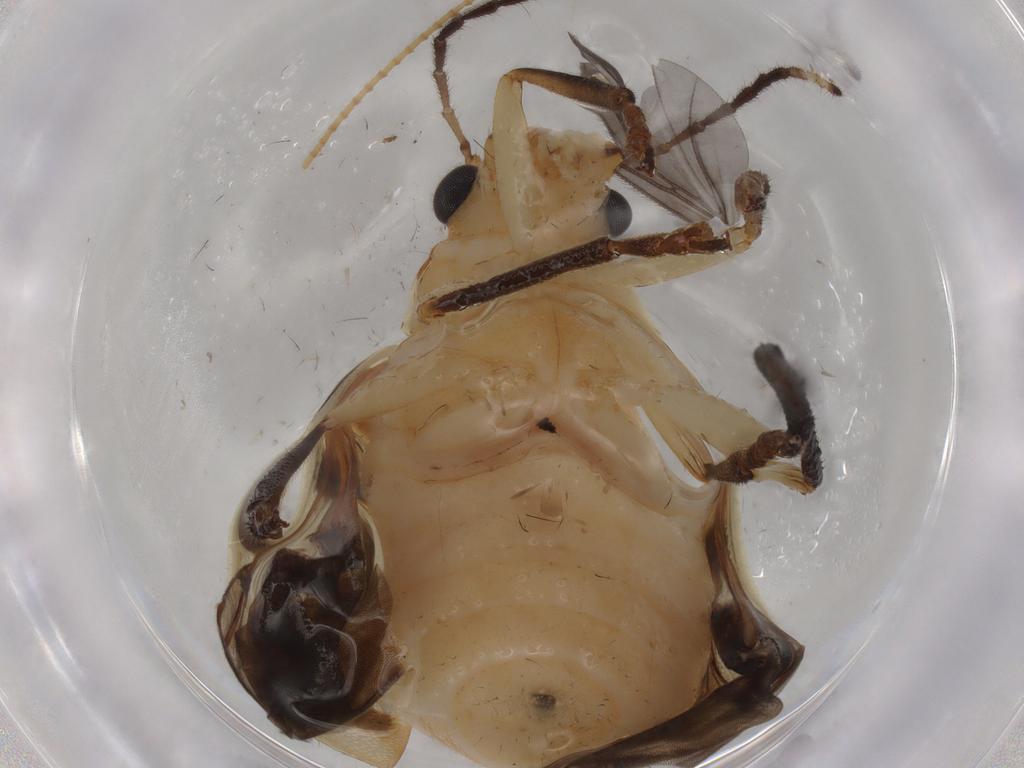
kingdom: Animalia
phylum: Arthropoda
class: Insecta
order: Coleoptera
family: Chrysomelidae
